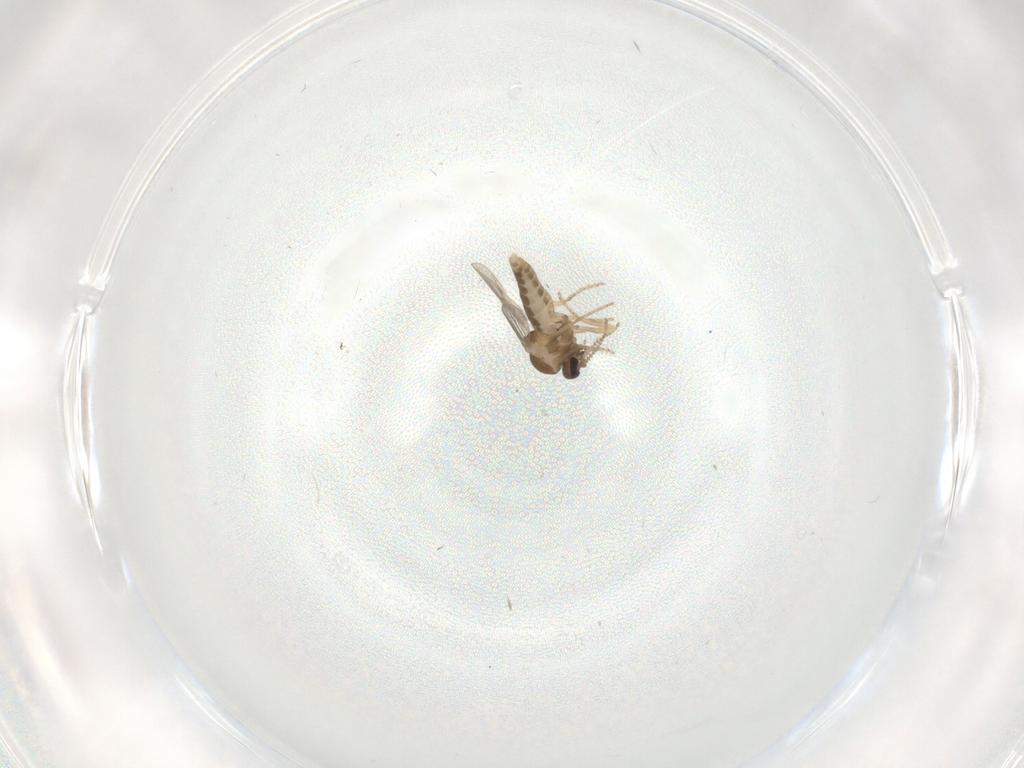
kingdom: Animalia
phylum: Arthropoda
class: Insecta
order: Diptera
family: Ceratopogonidae
